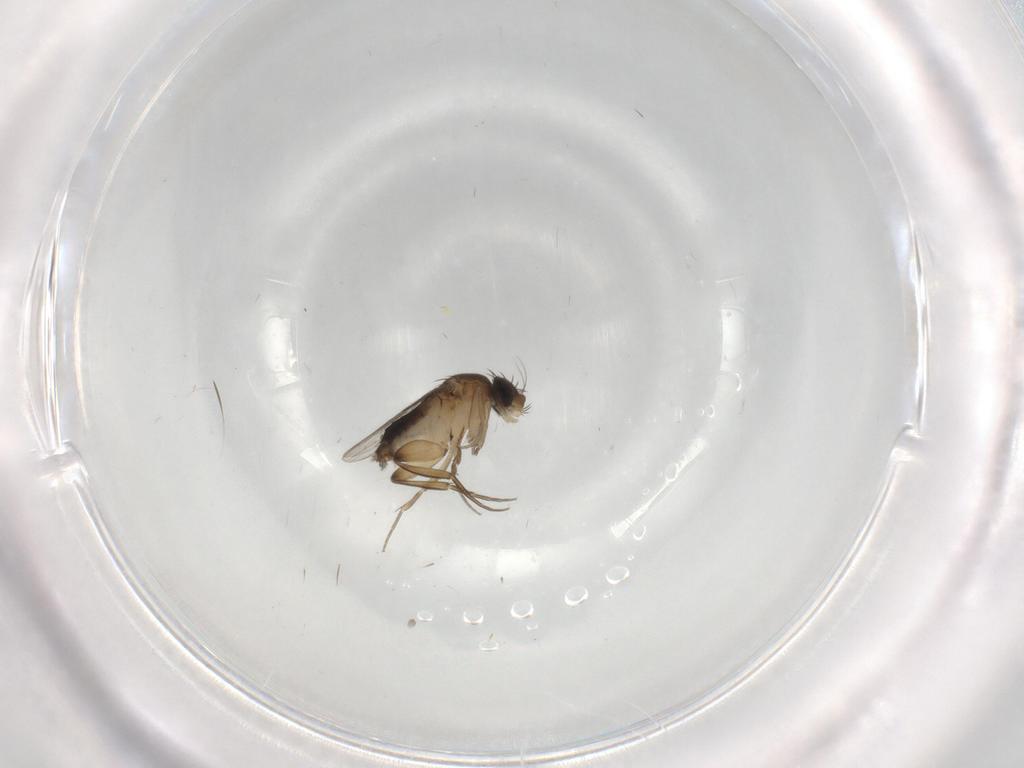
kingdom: Animalia
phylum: Arthropoda
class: Insecta
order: Diptera
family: Cecidomyiidae
